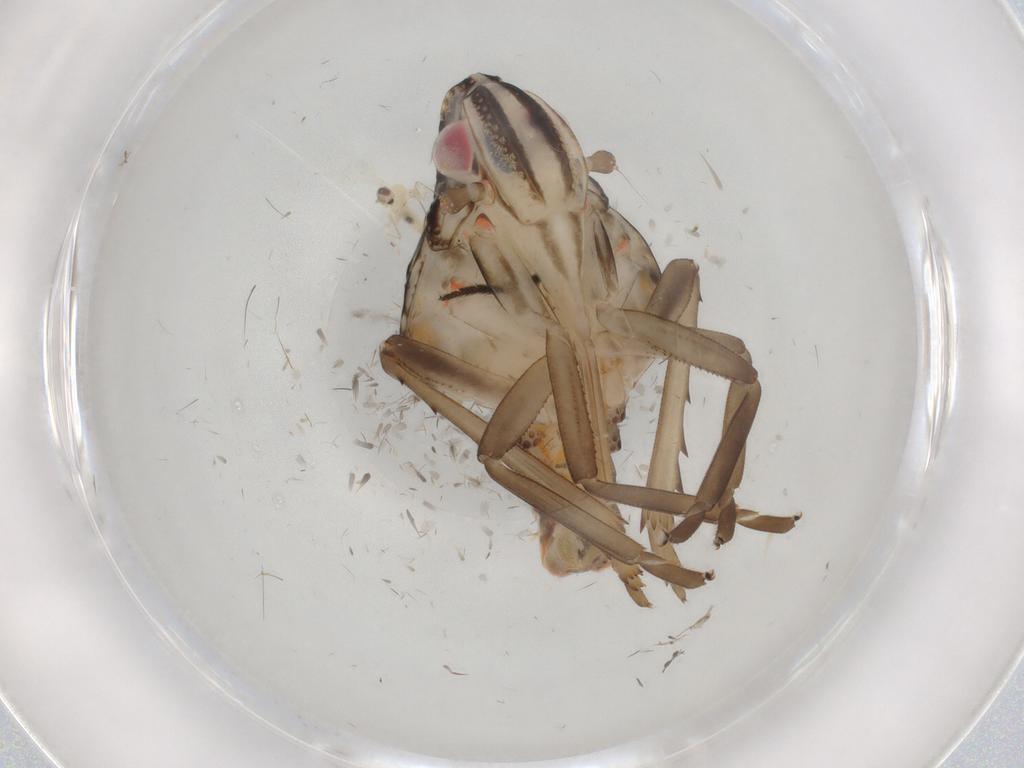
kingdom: Animalia
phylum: Arthropoda
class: Insecta
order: Hemiptera
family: Nogodinidae
